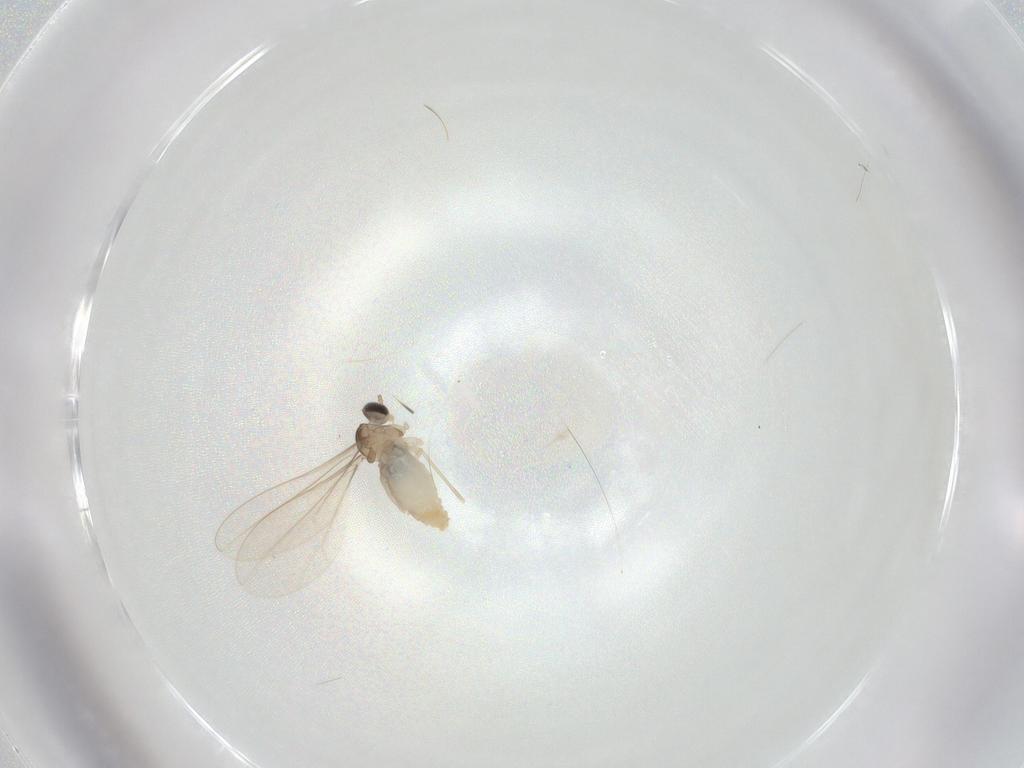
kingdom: Animalia
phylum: Arthropoda
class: Insecta
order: Diptera
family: Cecidomyiidae
